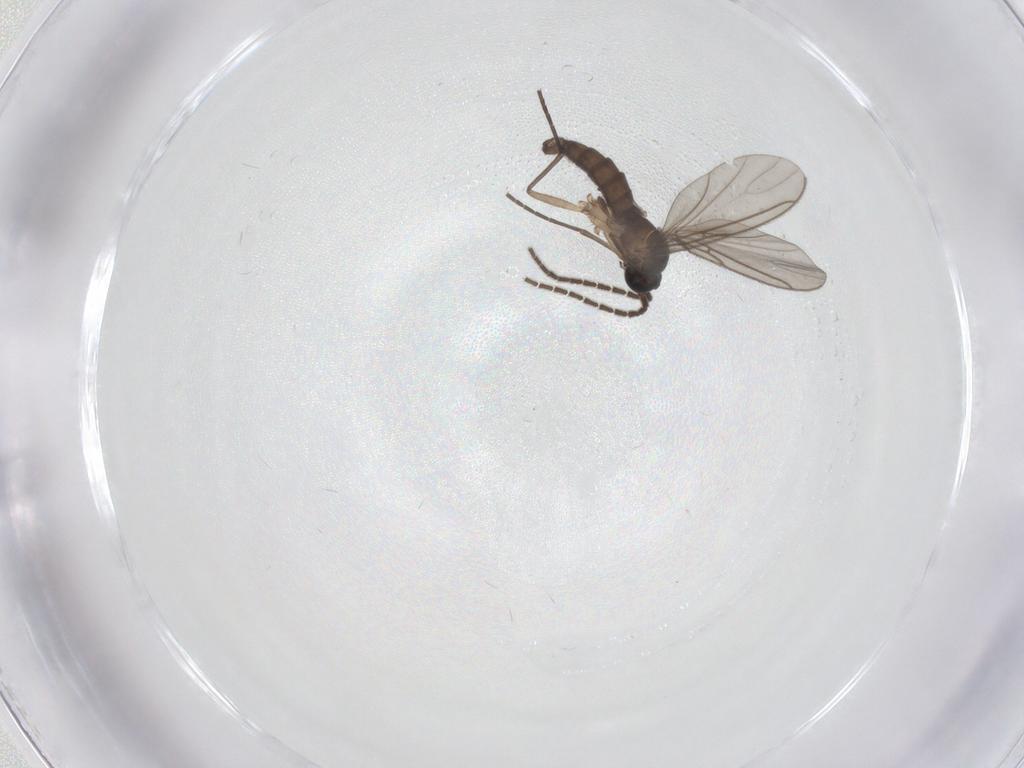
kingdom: Animalia
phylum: Arthropoda
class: Insecta
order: Diptera
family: Sciaridae
